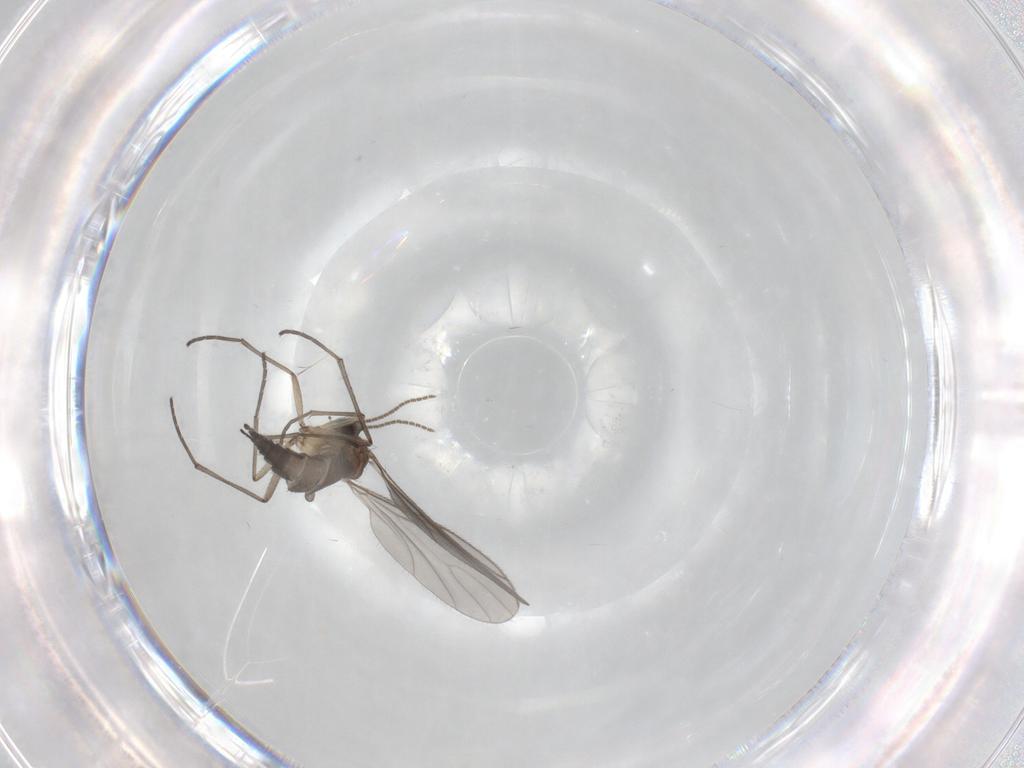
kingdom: Animalia
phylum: Arthropoda
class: Insecta
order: Diptera
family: Sciaridae
